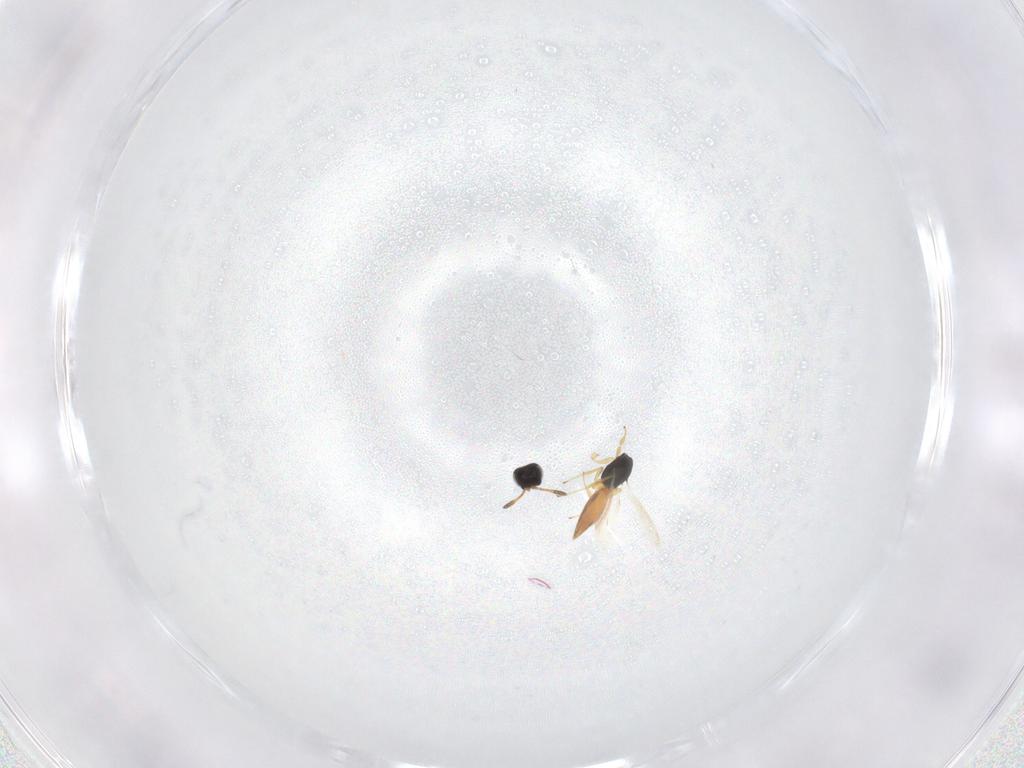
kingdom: Animalia
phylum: Arthropoda
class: Insecta
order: Hymenoptera
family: Scelionidae
